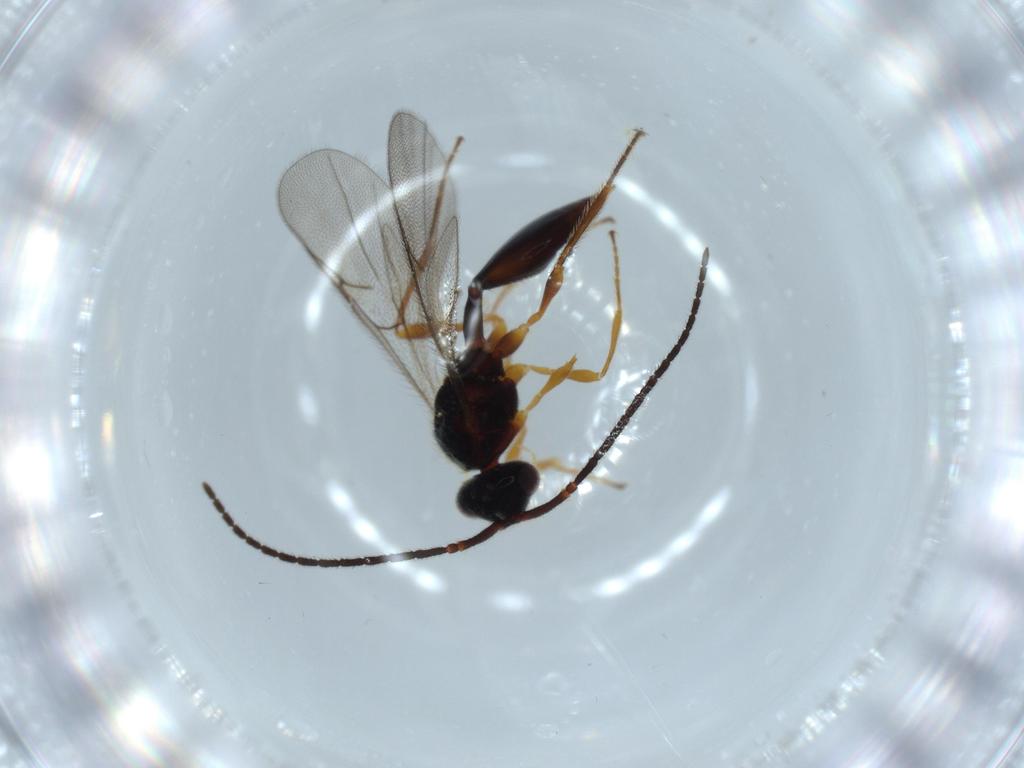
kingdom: Animalia
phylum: Arthropoda
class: Insecta
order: Hymenoptera
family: Diapriidae
